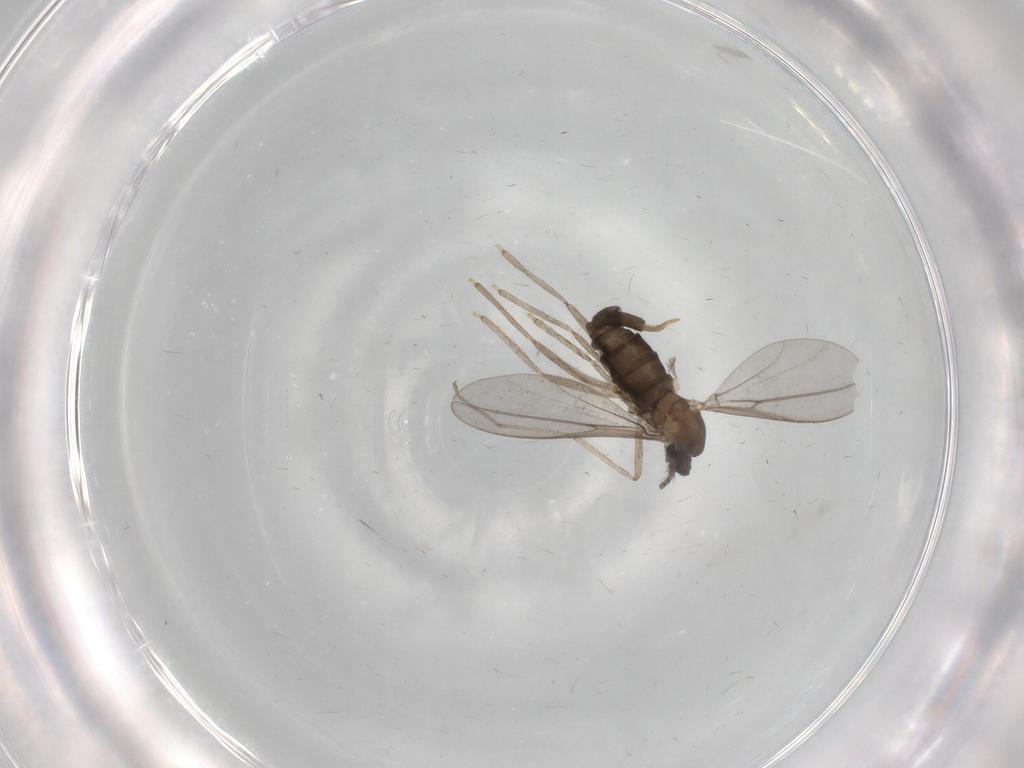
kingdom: Animalia
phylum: Arthropoda
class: Insecta
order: Diptera
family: Cecidomyiidae
